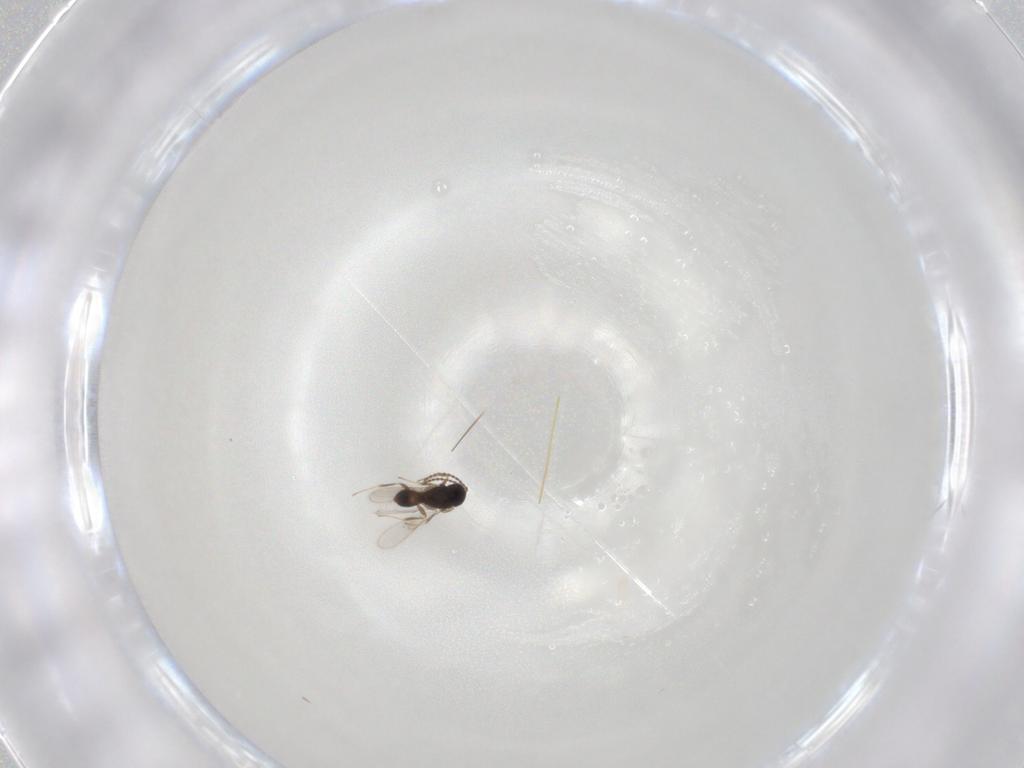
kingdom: Animalia
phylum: Arthropoda
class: Insecta
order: Hymenoptera
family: Scelionidae
